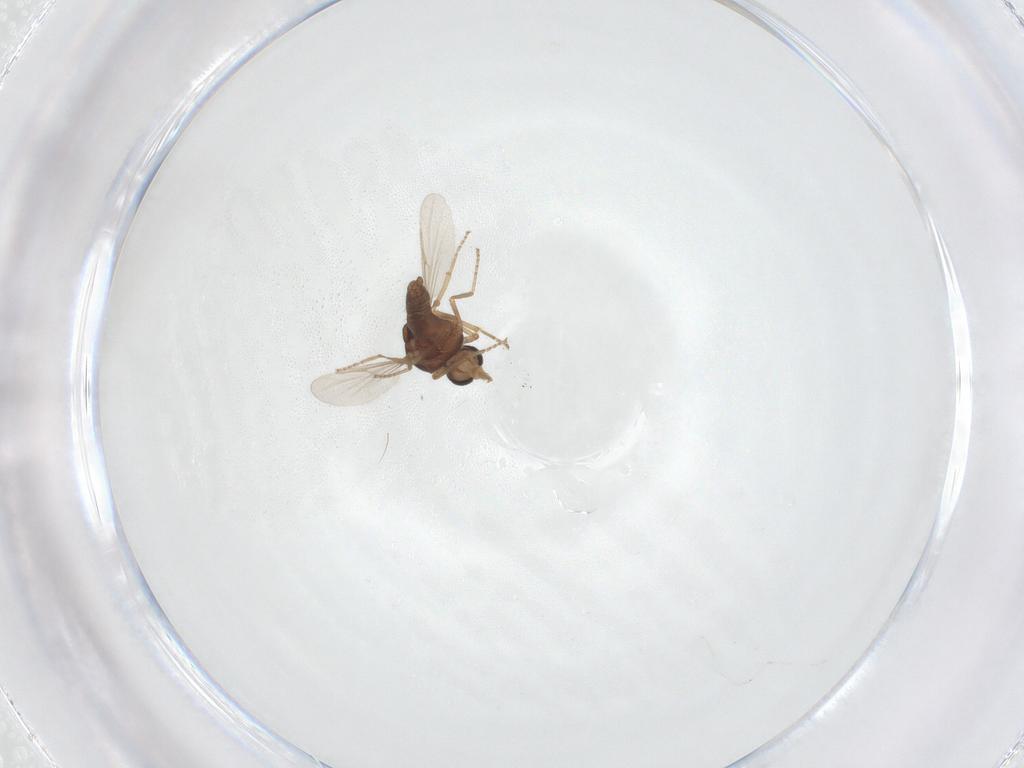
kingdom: Animalia
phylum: Arthropoda
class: Insecta
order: Diptera
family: Ceratopogonidae
